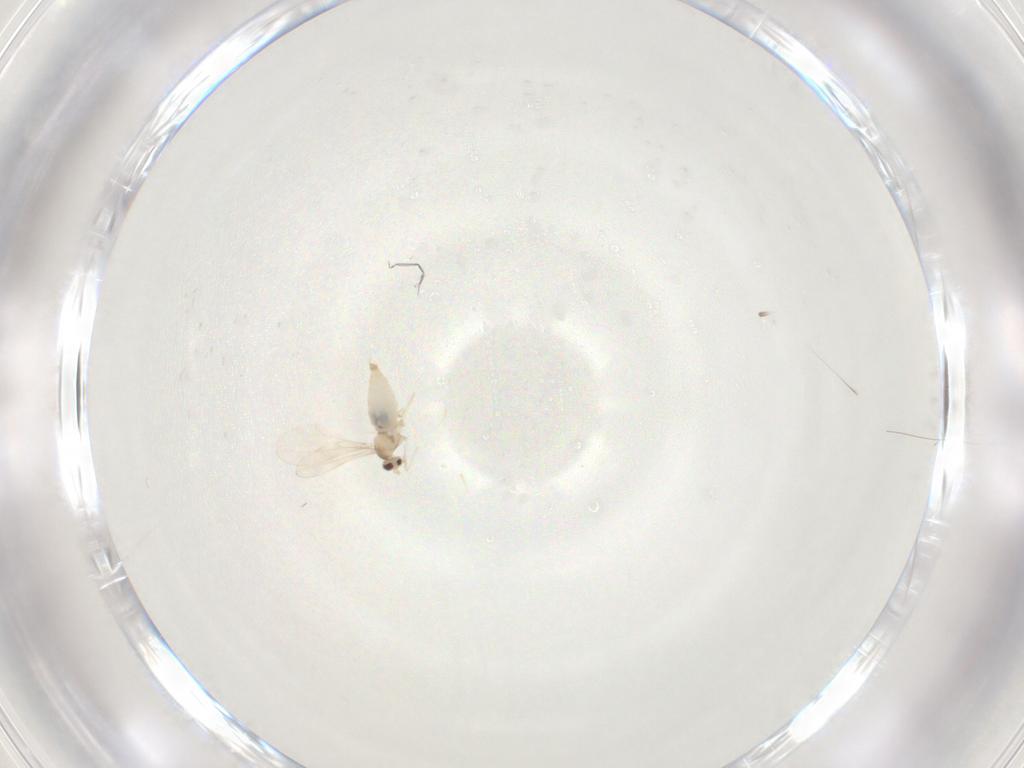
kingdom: Animalia
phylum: Arthropoda
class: Insecta
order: Diptera
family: Cecidomyiidae
